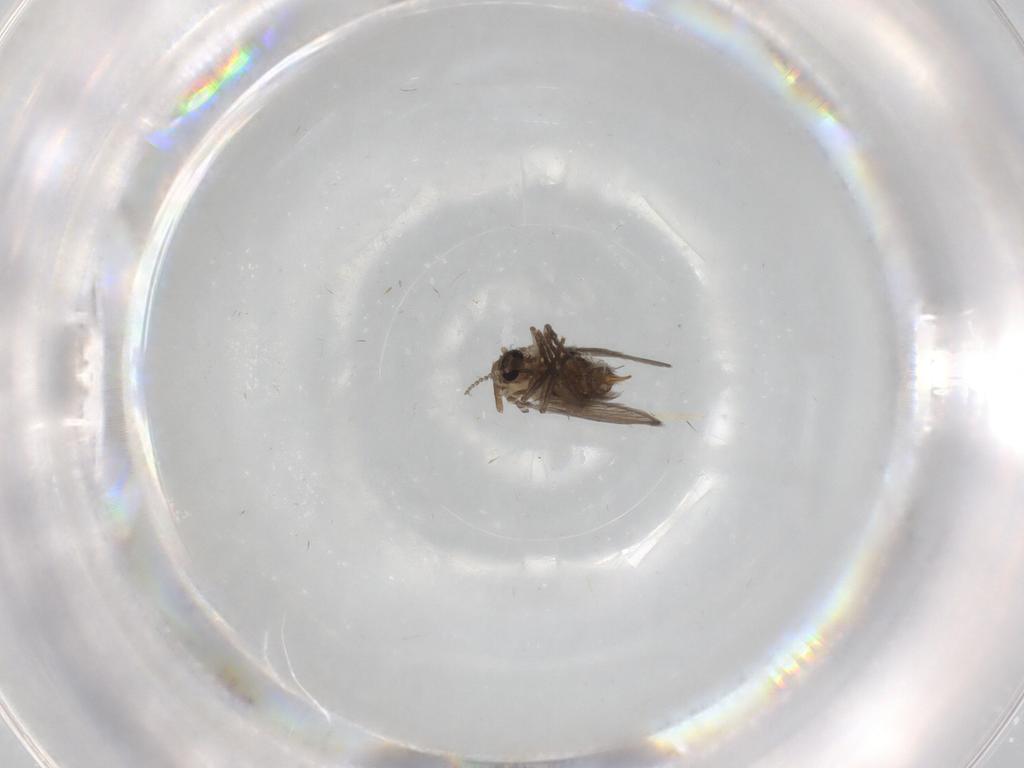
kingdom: Animalia
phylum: Arthropoda
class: Insecta
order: Diptera
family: Psychodidae
